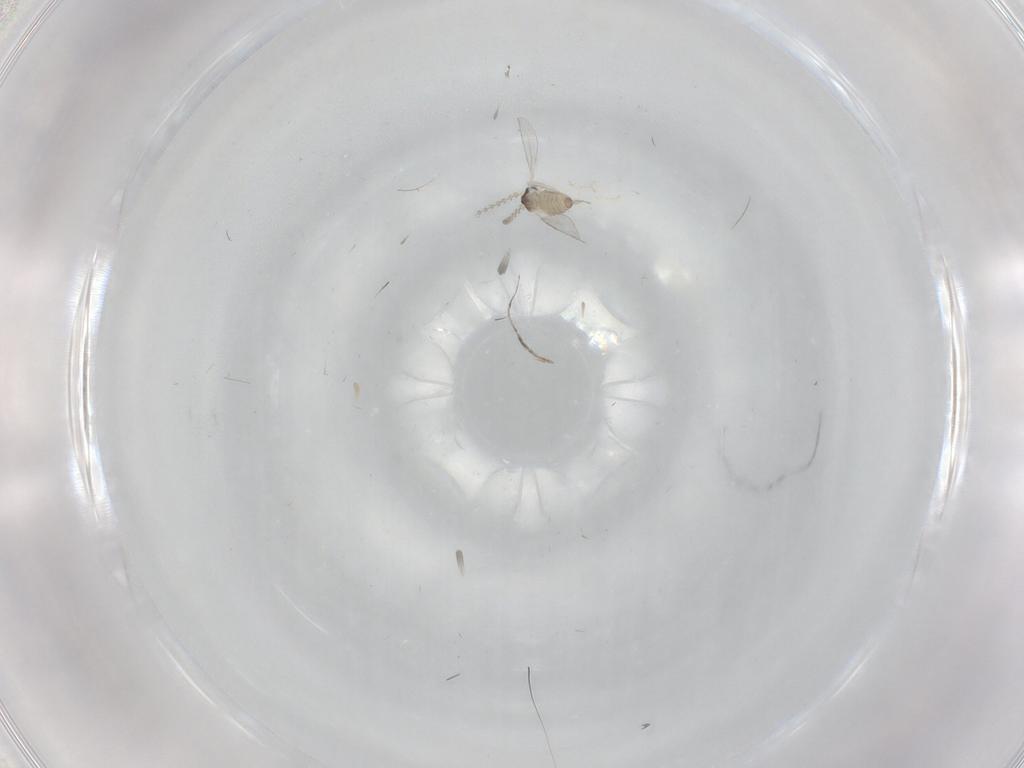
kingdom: Animalia
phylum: Arthropoda
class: Insecta
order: Diptera
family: Cecidomyiidae
